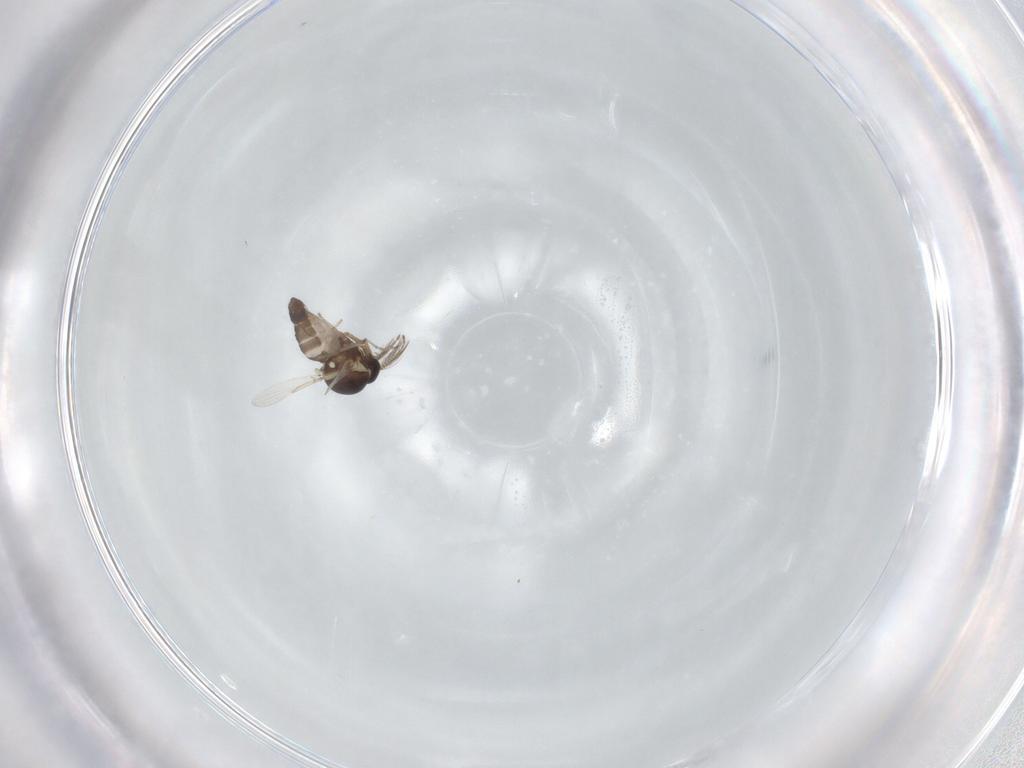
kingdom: Animalia
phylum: Arthropoda
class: Insecta
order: Diptera
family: Ceratopogonidae
